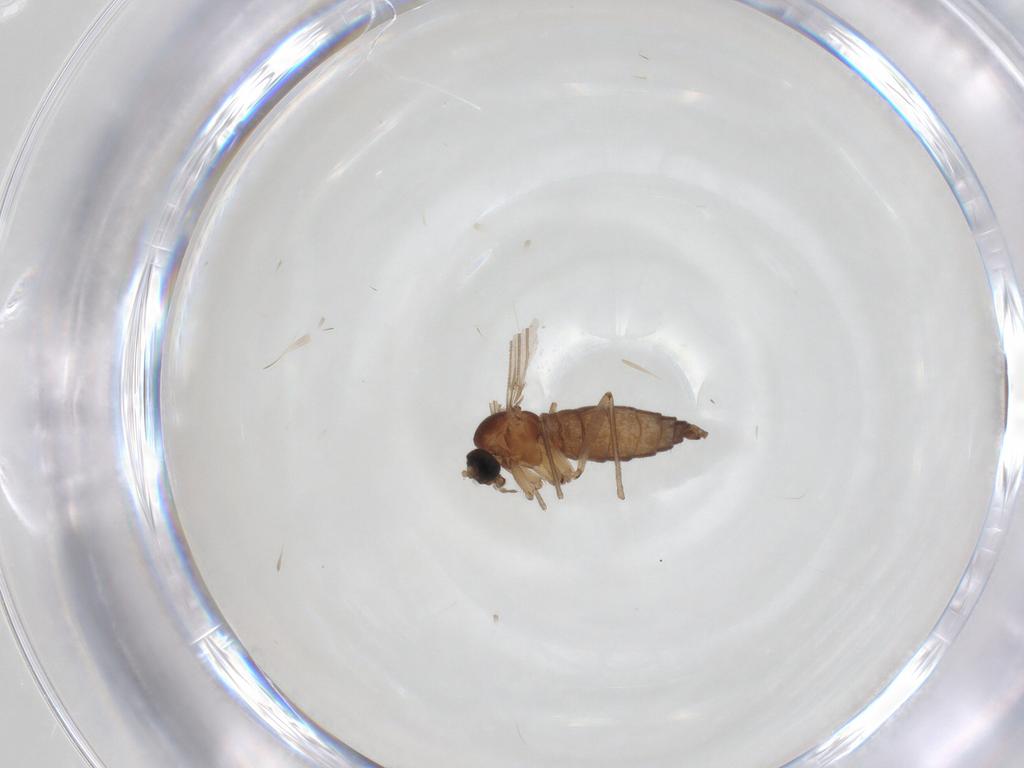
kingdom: Animalia
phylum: Arthropoda
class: Insecta
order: Diptera
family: Sciaridae
